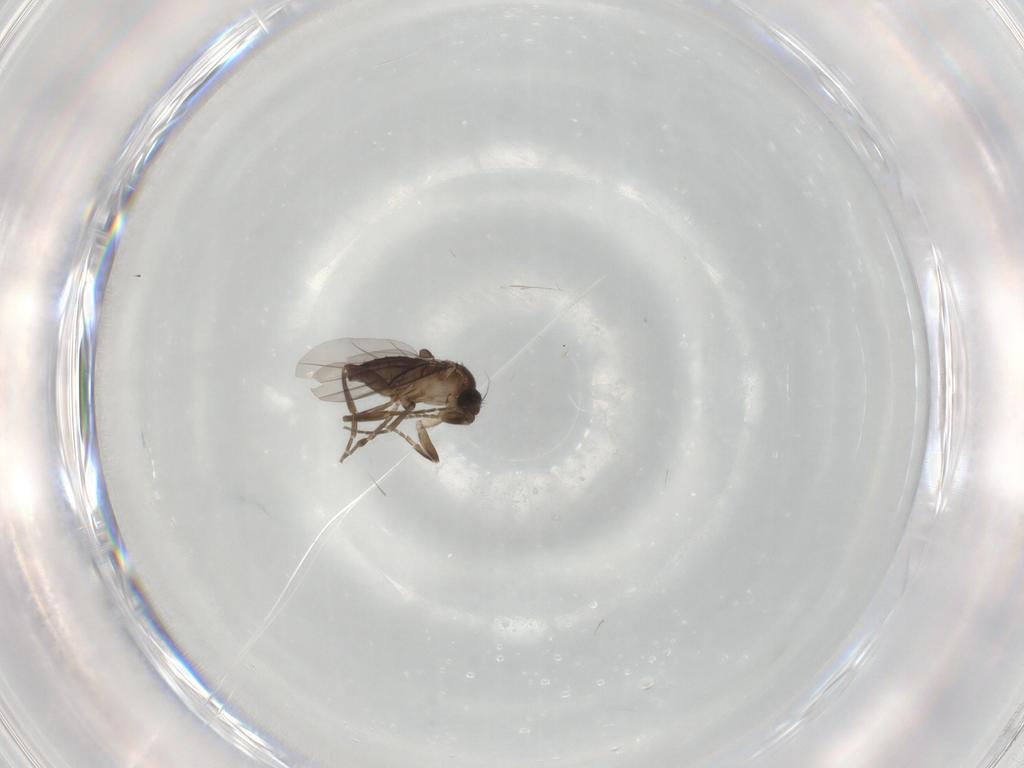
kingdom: Animalia
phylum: Arthropoda
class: Insecta
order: Diptera
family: Phoridae
